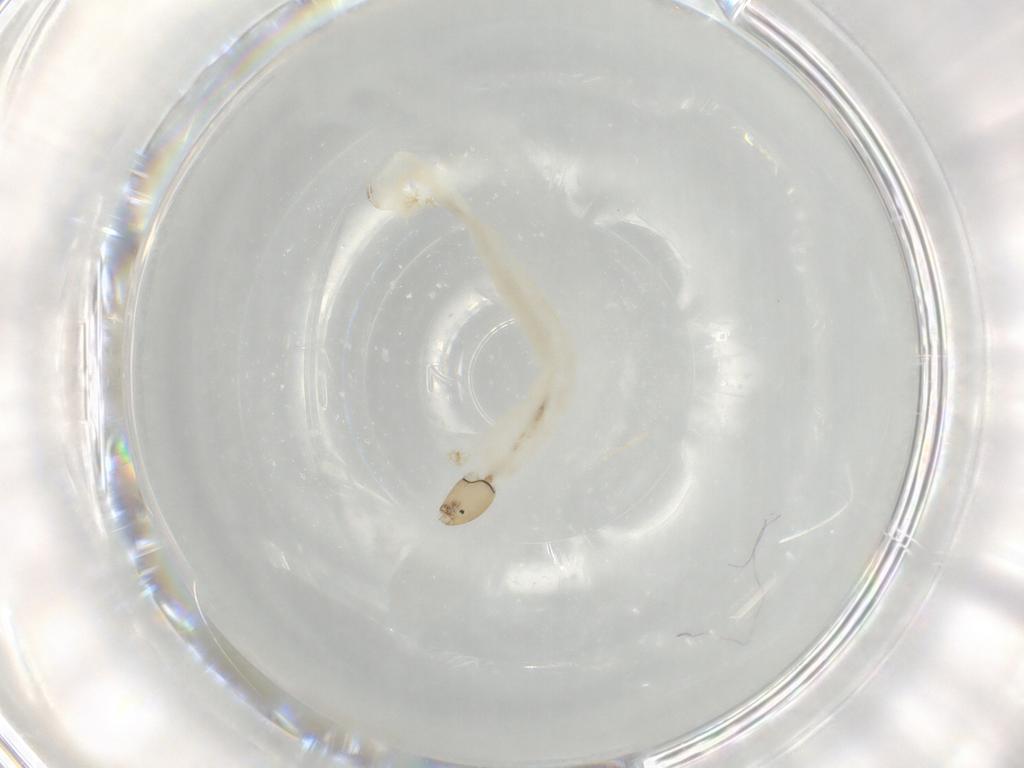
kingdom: Animalia
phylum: Arthropoda
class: Insecta
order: Diptera
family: Chironomidae
